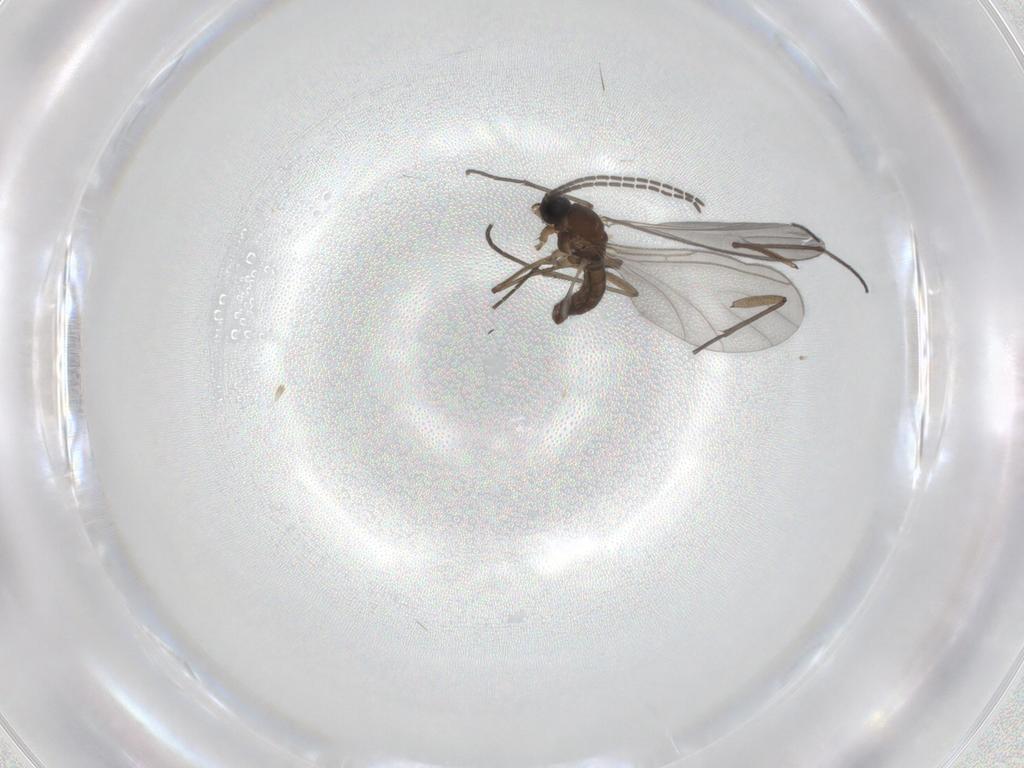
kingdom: Animalia
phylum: Arthropoda
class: Insecta
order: Diptera
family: Sciaridae
